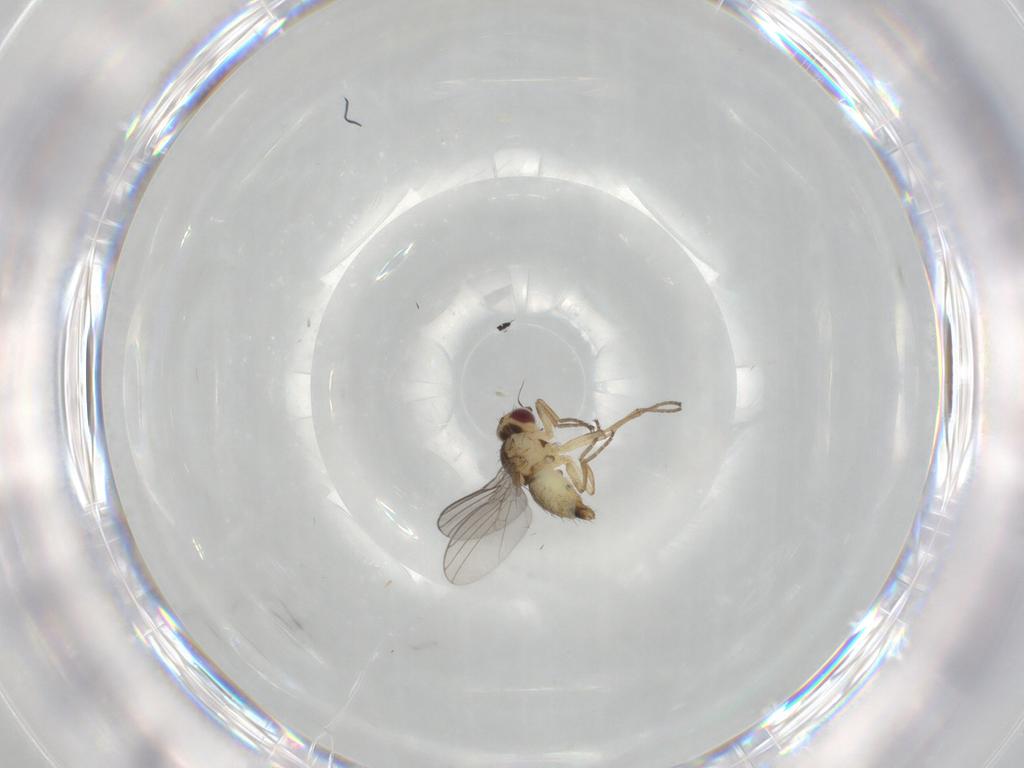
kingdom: Animalia
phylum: Arthropoda
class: Insecta
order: Diptera
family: Agromyzidae
